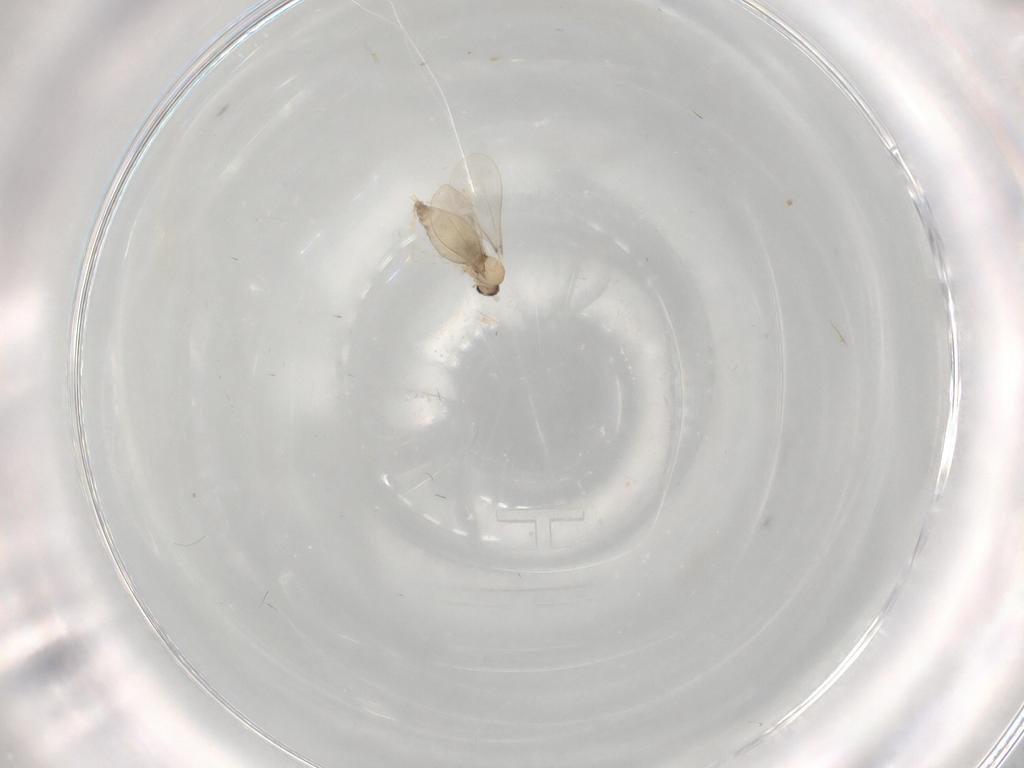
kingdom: Animalia
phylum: Arthropoda
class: Insecta
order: Diptera
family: Cecidomyiidae
